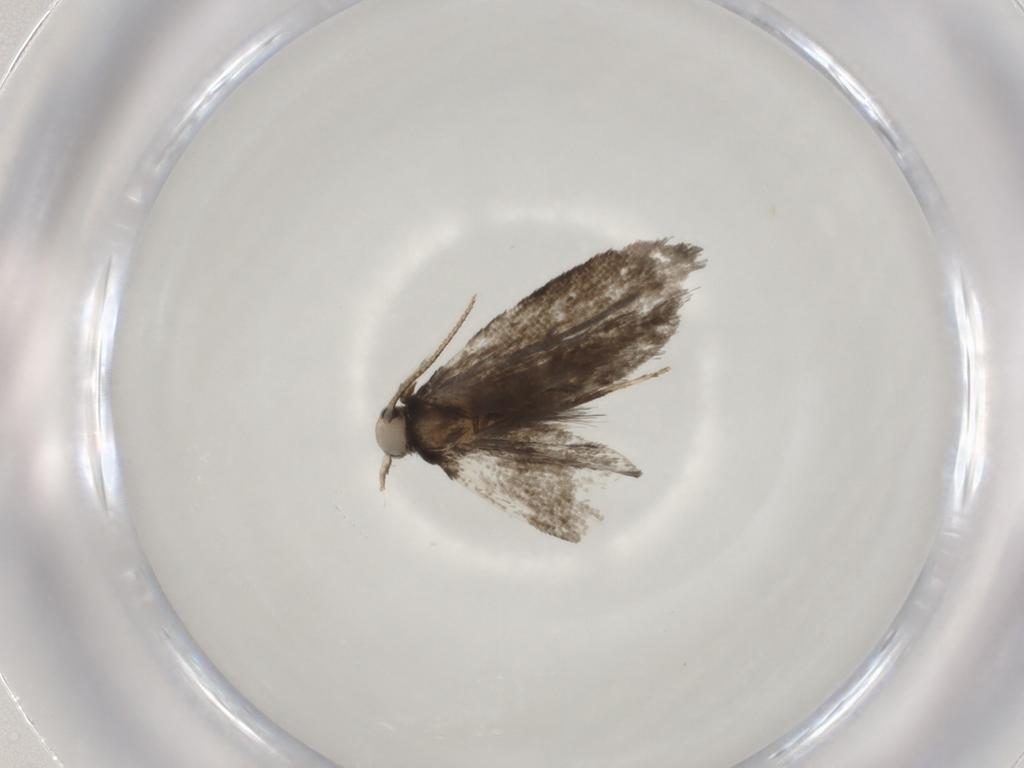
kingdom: Animalia
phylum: Arthropoda
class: Insecta
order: Lepidoptera
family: Psychidae
